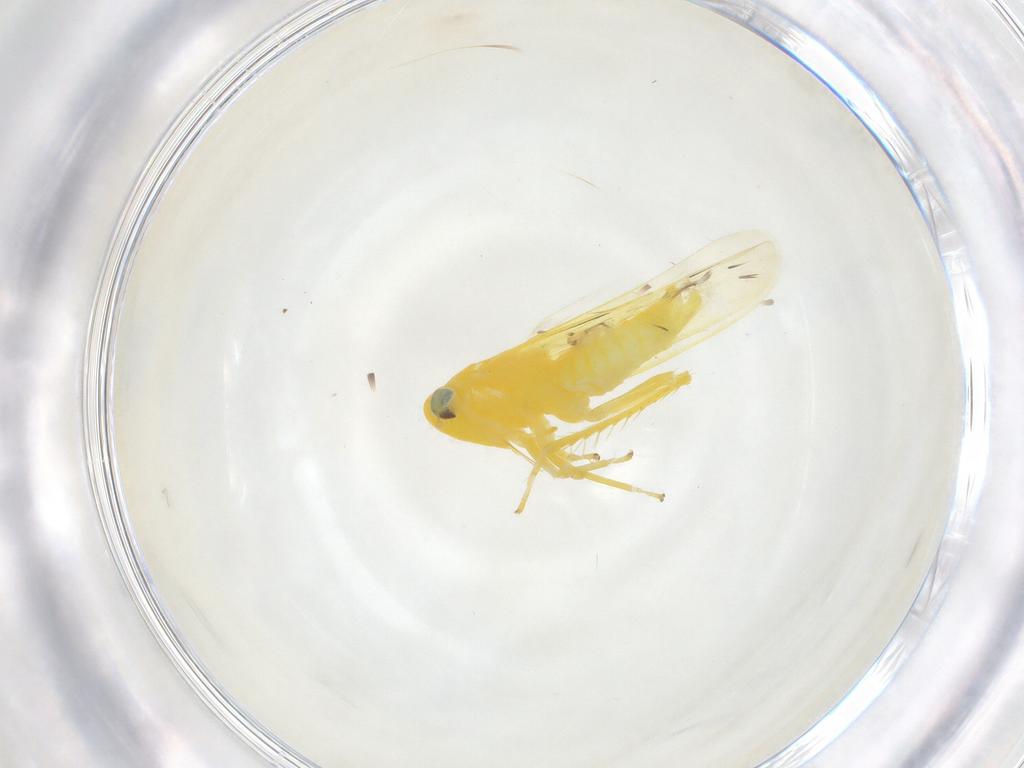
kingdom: Animalia
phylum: Arthropoda
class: Insecta
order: Hemiptera
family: Cicadellidae
